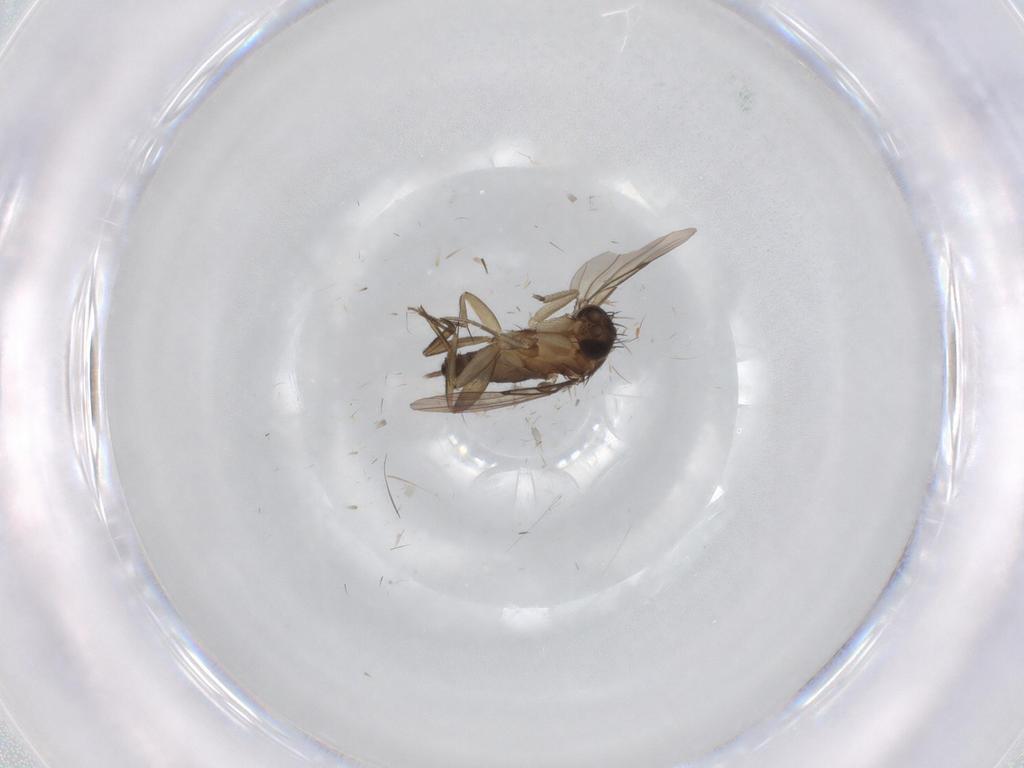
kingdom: Animalia
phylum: Arthropoda
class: Insecta
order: Diptera
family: Phoridae
